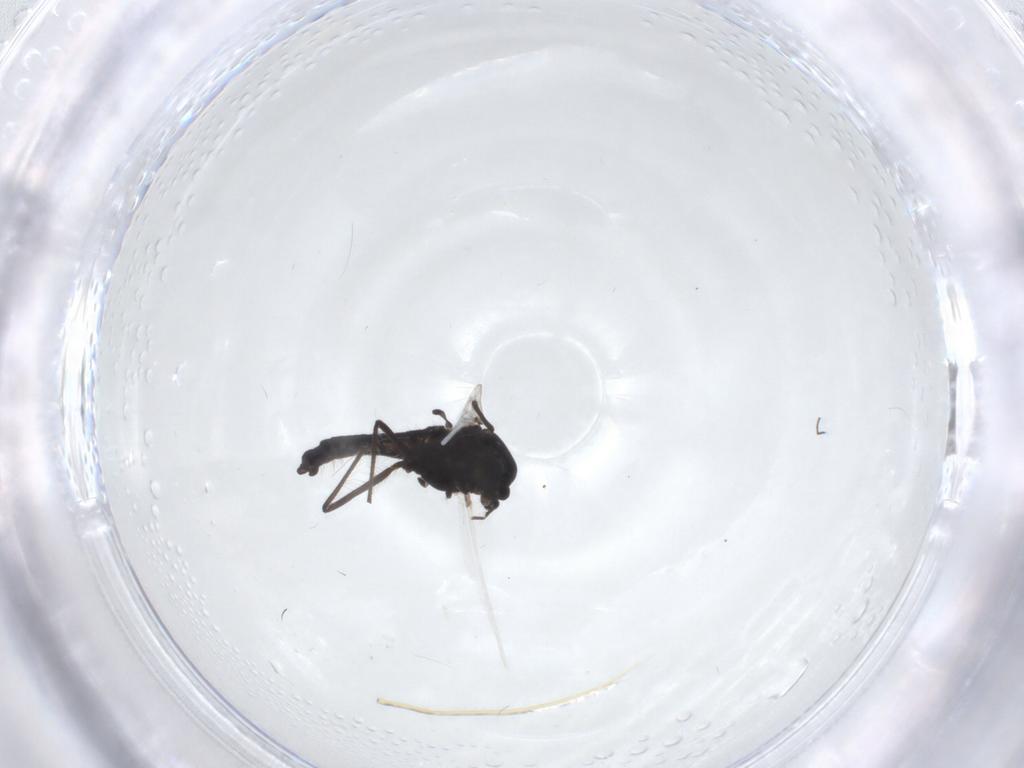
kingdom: Animalia
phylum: Arthropoda
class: Insecta
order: Diptera
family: Chironomidae
